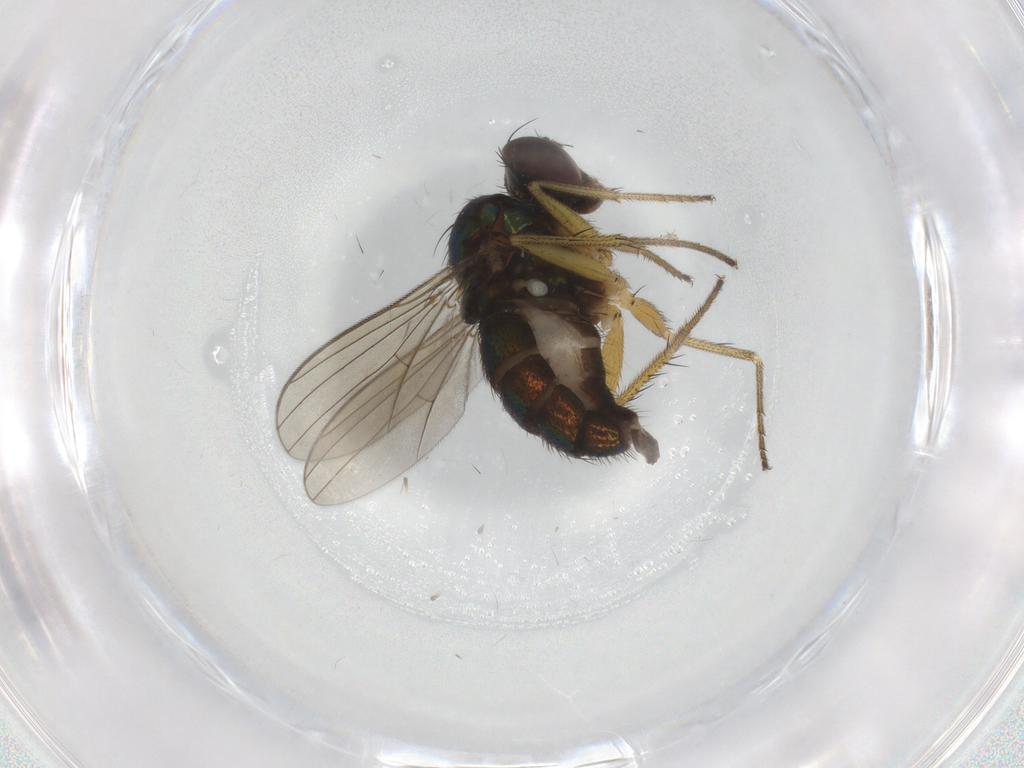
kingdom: Animalia
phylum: Arthropoda
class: Insecta
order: Diptera
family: Dolichopodidae
